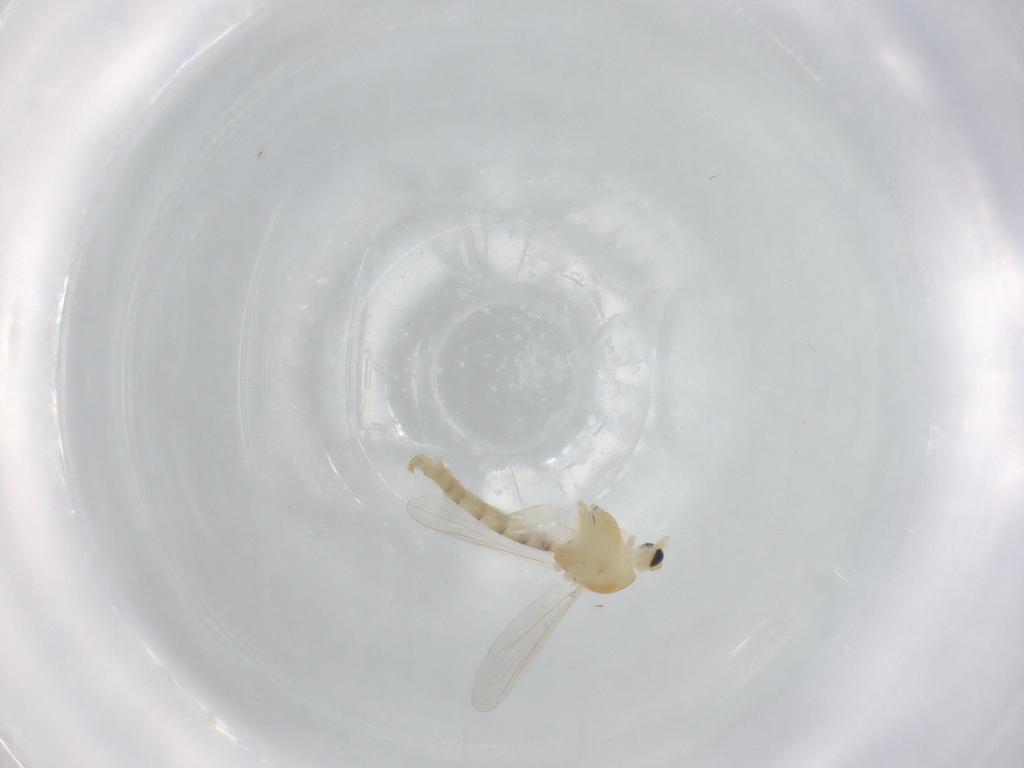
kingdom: Animalia
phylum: Arthropoda
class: Insecta
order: Diptera
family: Chironomidae
